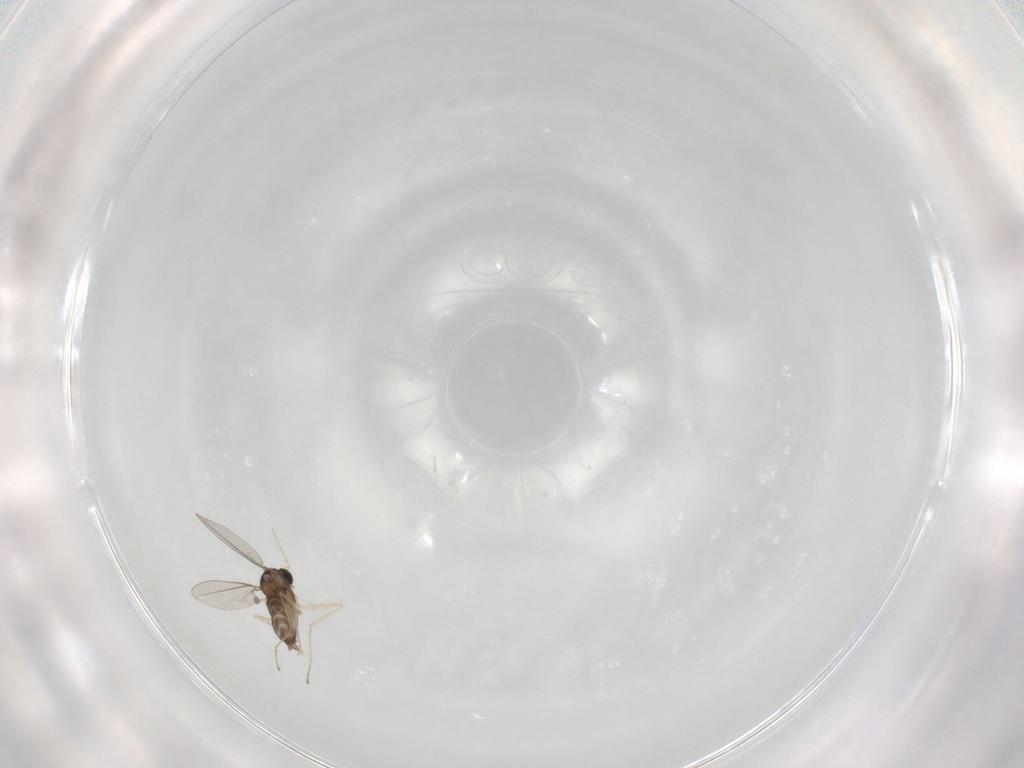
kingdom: Animalia
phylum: Arthropoda
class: Insecta
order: Diptera
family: Cecidomyiidae
